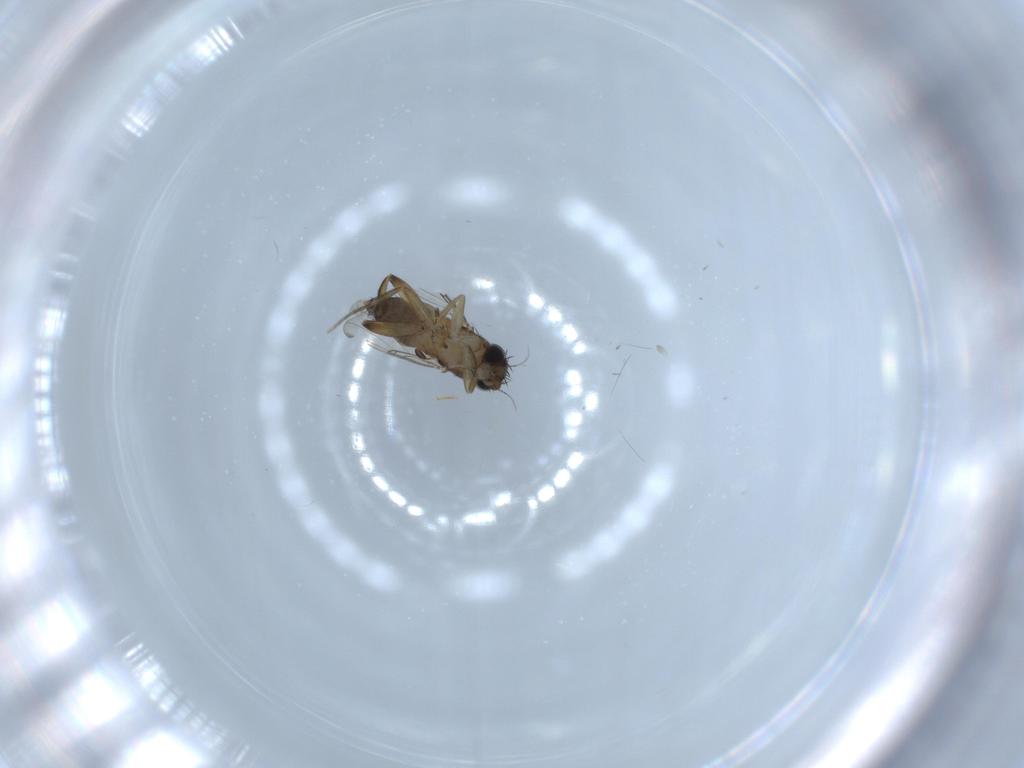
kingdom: Animalia
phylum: Arthropoda
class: Insecta
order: Diptera
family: Phoridae
